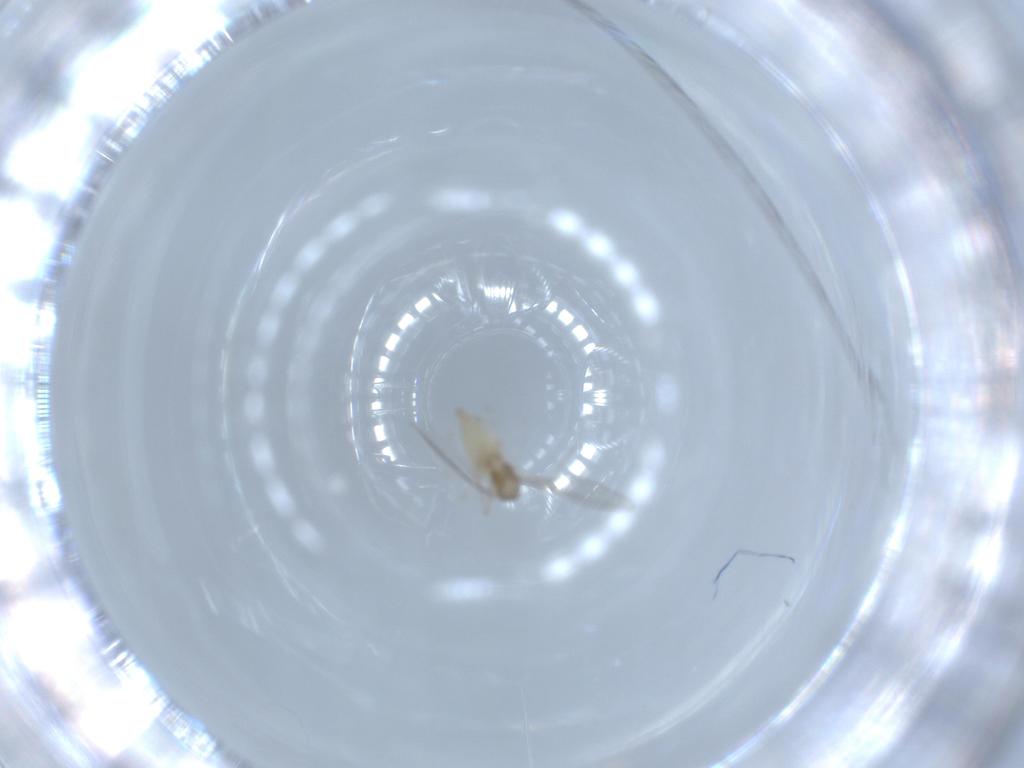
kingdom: Animalia
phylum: Arthropoda
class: Insecta
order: Diptera
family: Cecidomyiidae
